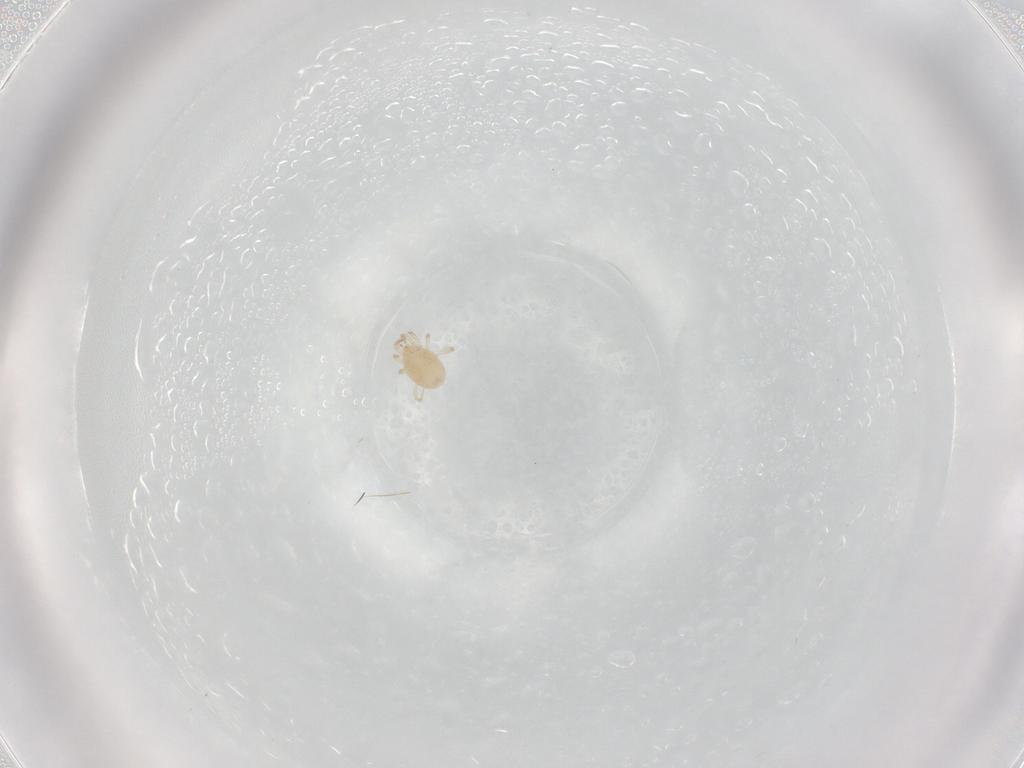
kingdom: Animalia
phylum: Arthropoda
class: Arachnida
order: Mesostigmata
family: Phytoseiidae
